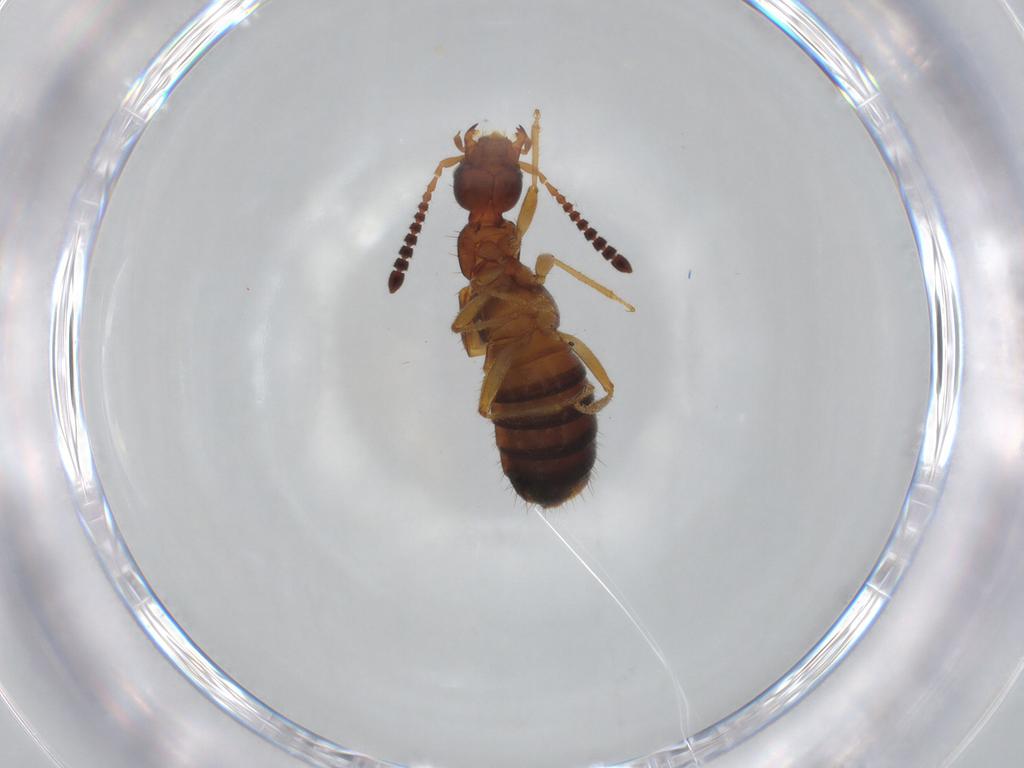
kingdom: Animalia
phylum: Arthropoda
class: Insecta
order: Coleoptera
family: Staphylinidae
